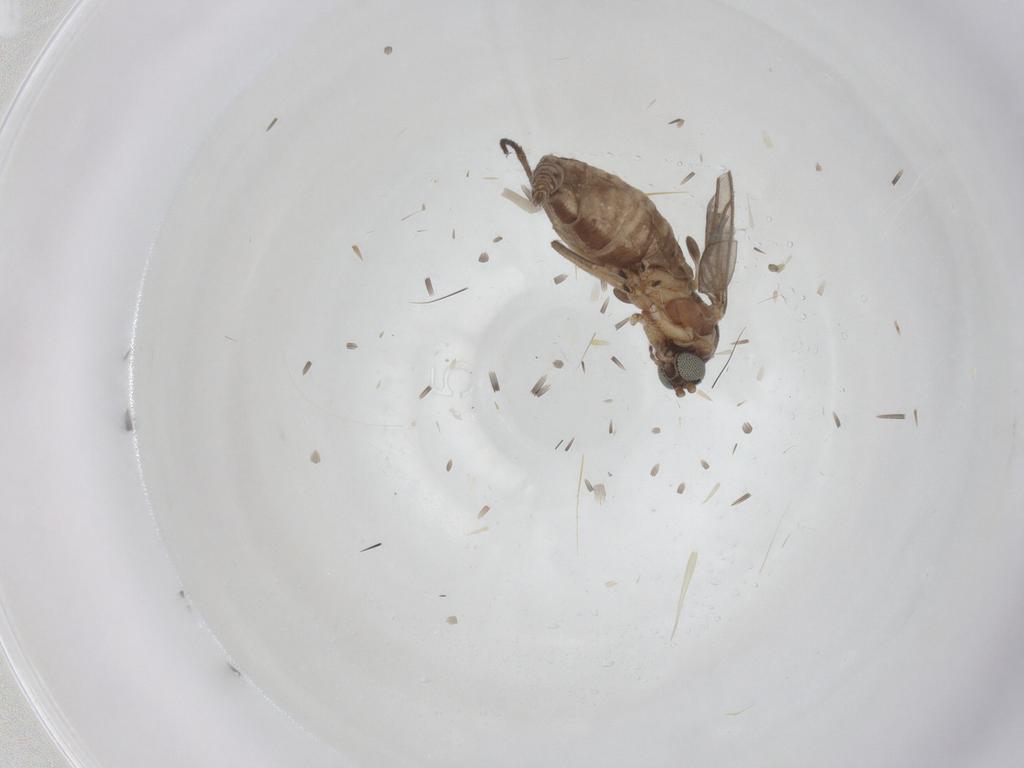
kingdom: Animalia
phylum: Arthropoda
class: Insecta
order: Diptera
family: Sciaridae
